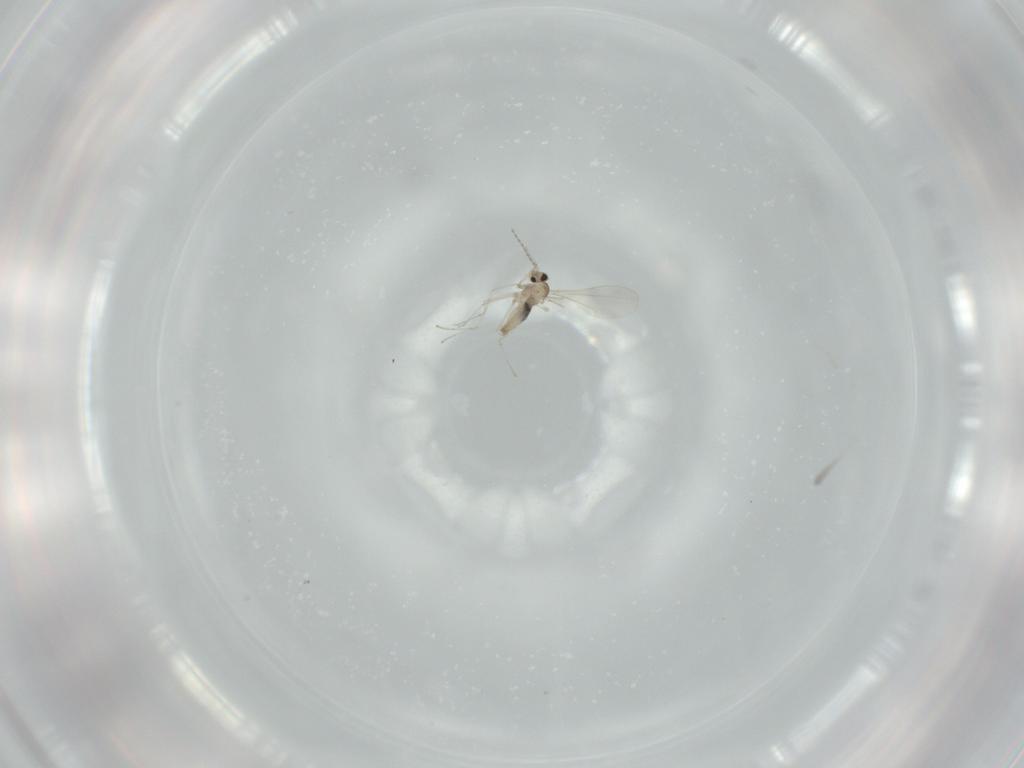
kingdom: Animalia
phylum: Arthropoda
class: Insecta
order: Diptera
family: Cecidomyiidae
